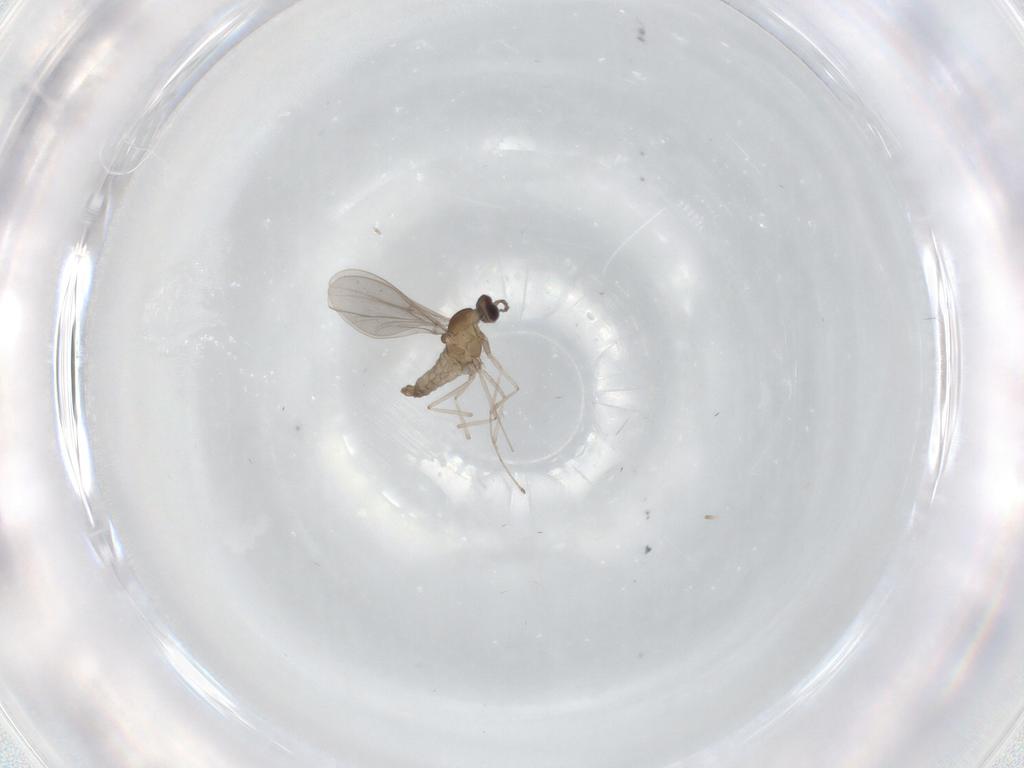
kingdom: Animalia
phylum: Arthropoda
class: Insecta
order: Diptera
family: Cecidomyiidae
